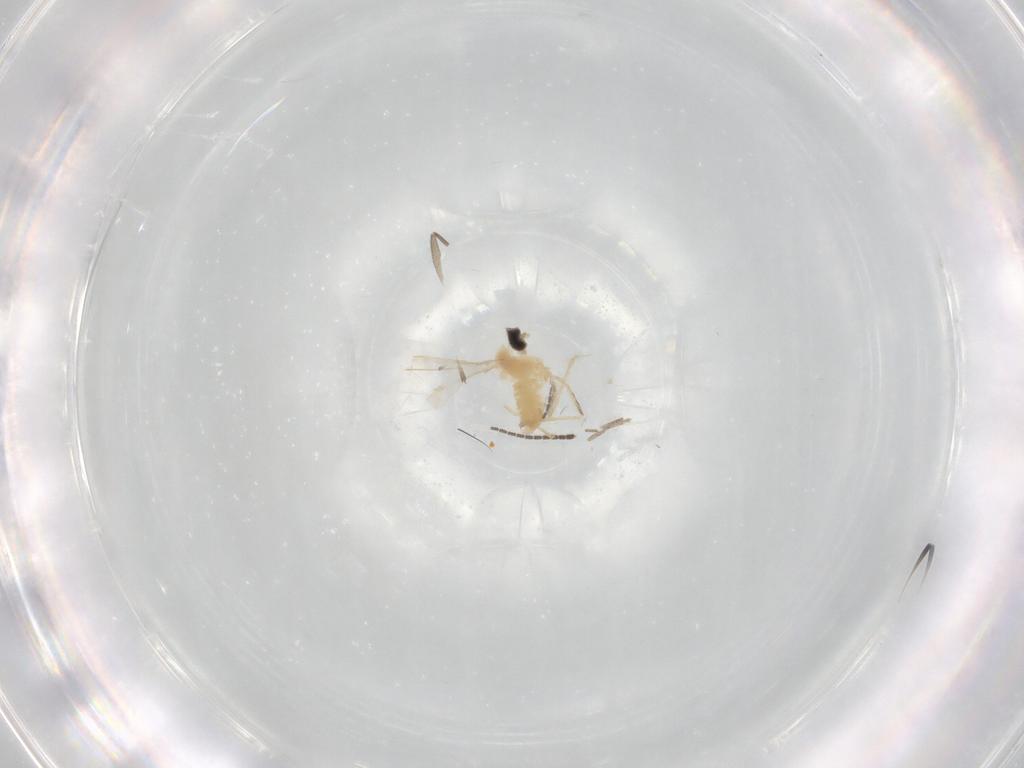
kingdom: Animalia
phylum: Arthropoda
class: Insecta
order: Diptera
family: Cecidomyiidae
